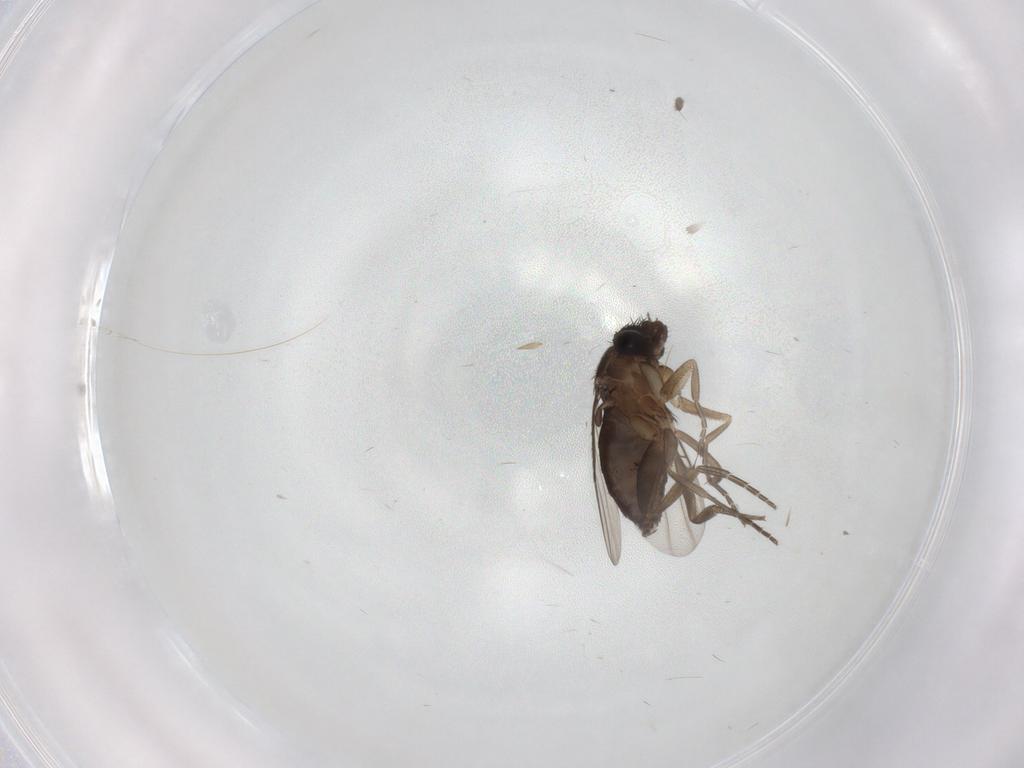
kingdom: Animalia
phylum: Arthropoda
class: Insecta
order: Diptera
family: Phoridae
